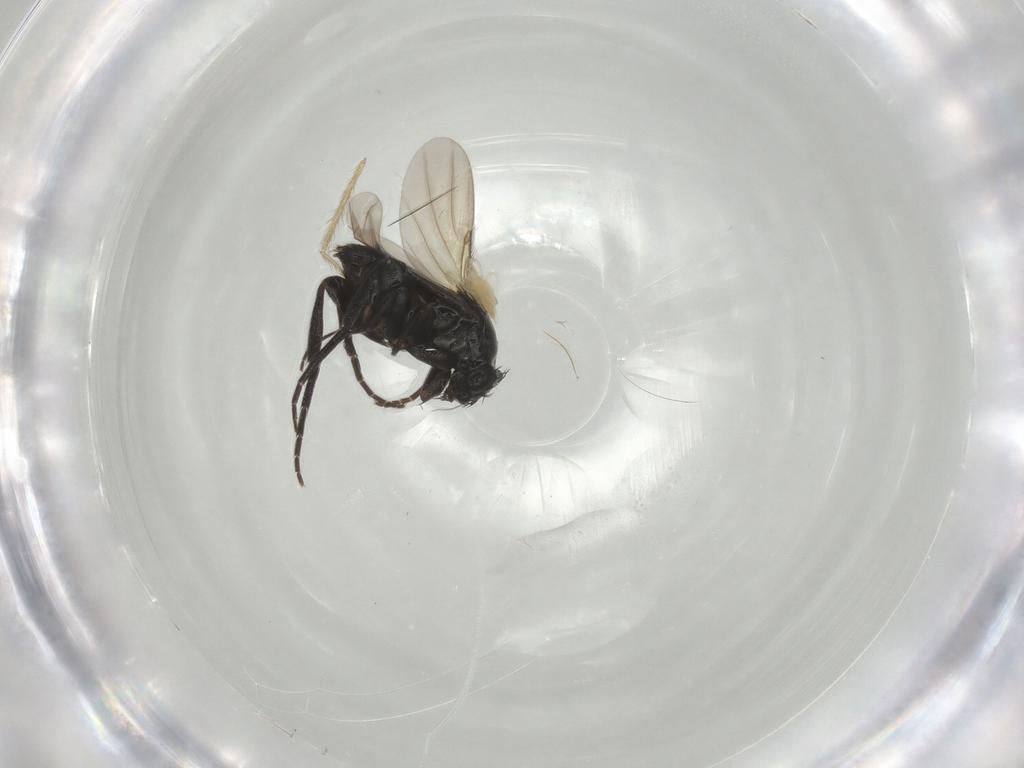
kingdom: Animalia
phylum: Arthropoda
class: Insecta
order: Diptera
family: Phoridae
